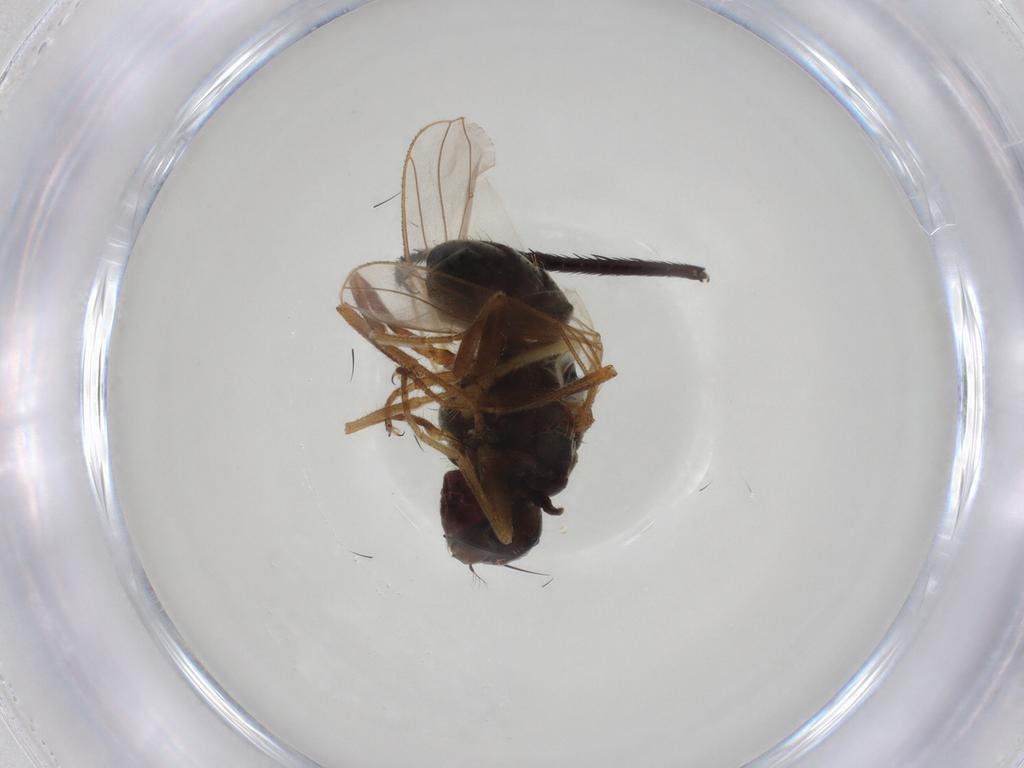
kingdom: Animalia
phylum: Arthropoda
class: Insecta
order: Diptera
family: Muscidae
